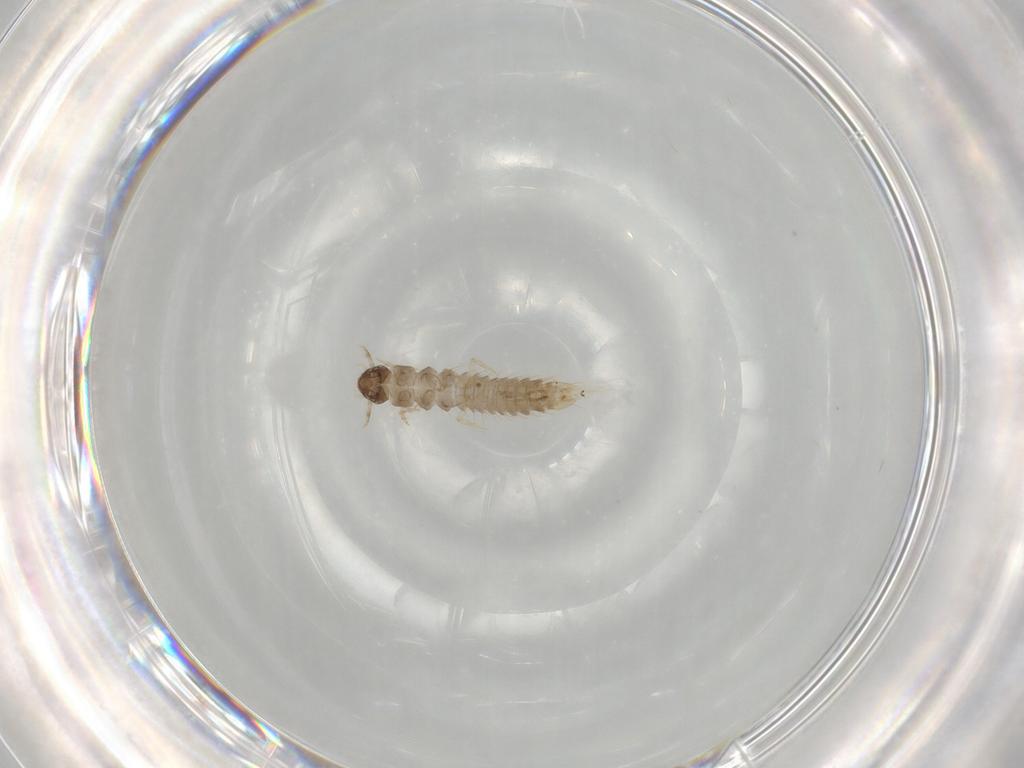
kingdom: Animalia
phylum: Arthropoda
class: Insecta
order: Coleoptera
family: Staphylinidae
